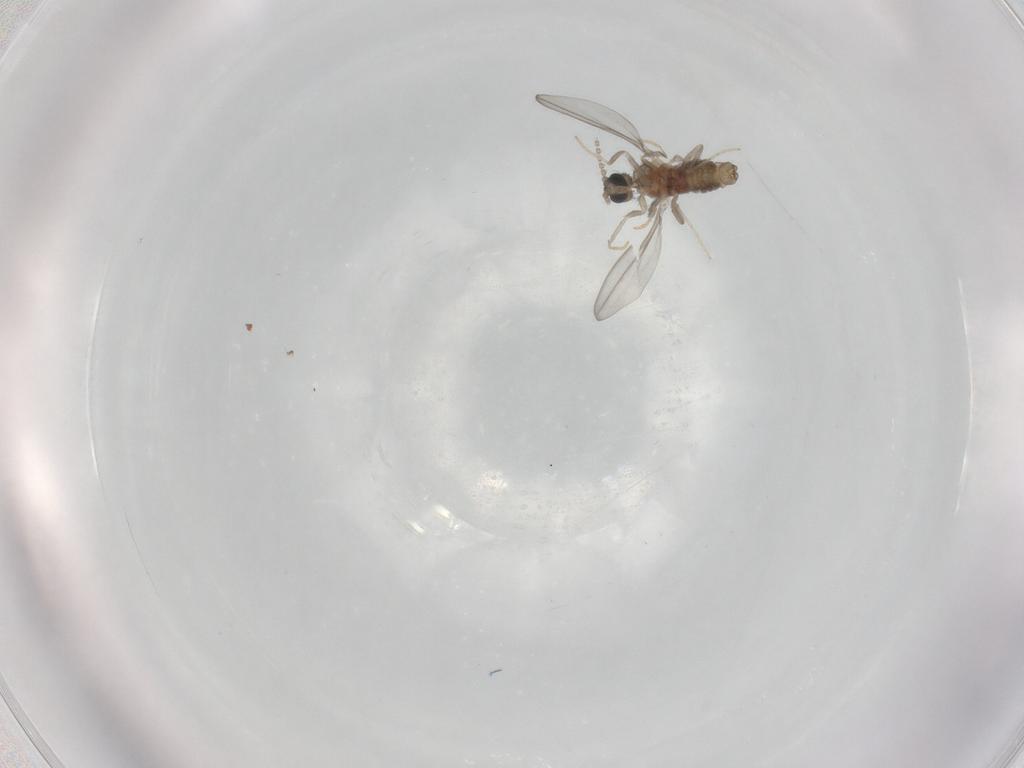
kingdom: Animalia
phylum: Arthropoda
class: Insecta
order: Diptera
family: Cecidomyiidae
